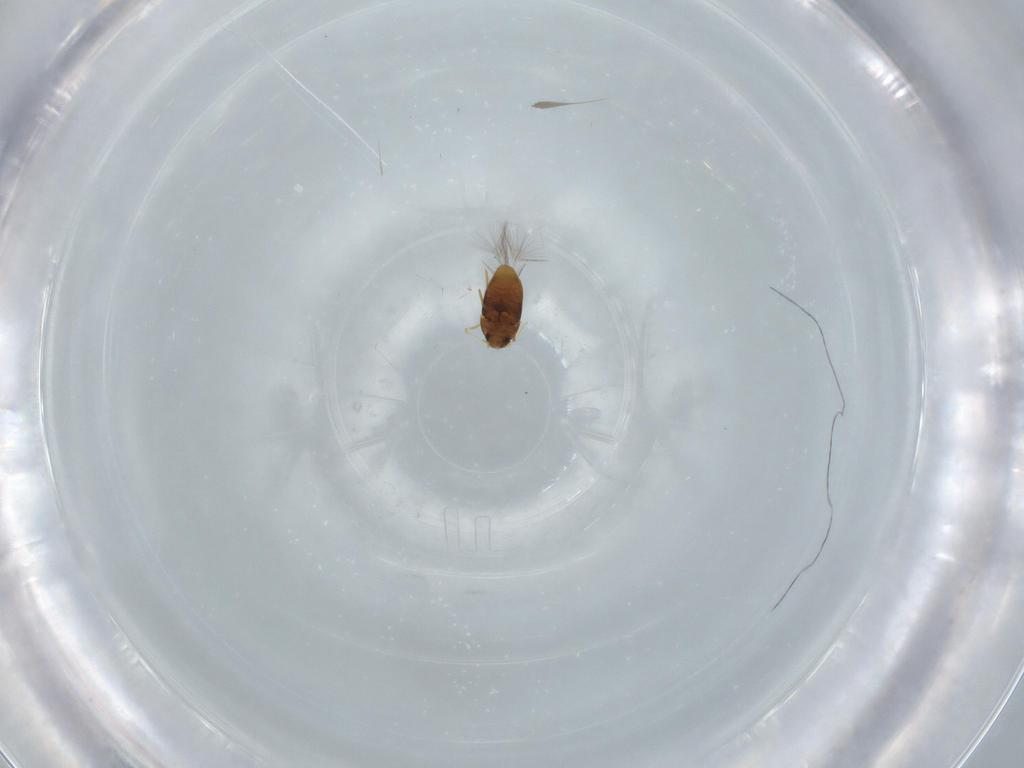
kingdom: Animalia
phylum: Arthropoda
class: Insecta
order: Coleoptera
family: Ptiliidae
